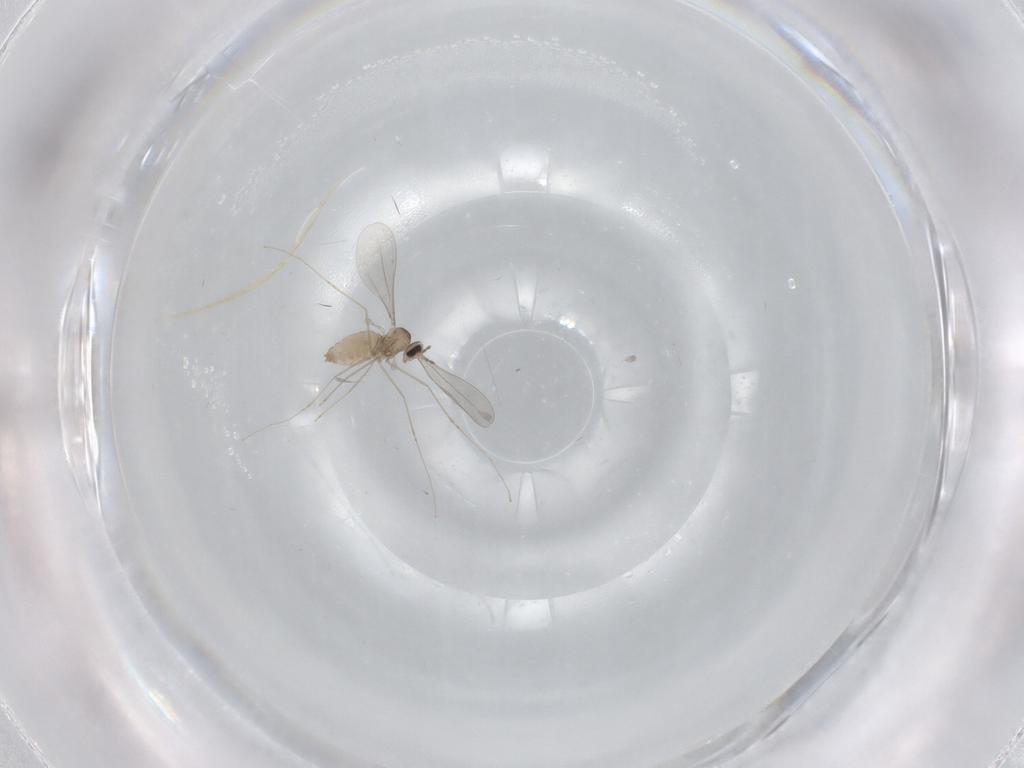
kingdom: Animalia
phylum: Arthropoda
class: Insecta
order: Diptera
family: Cecidomyiidae
